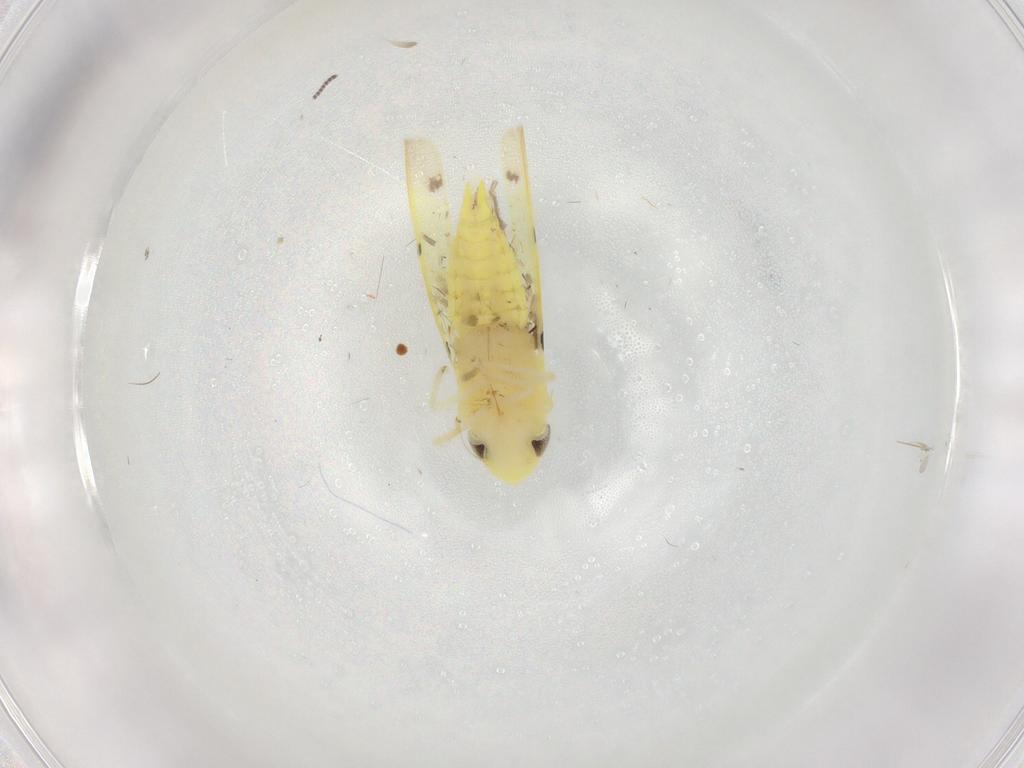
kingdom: Animalia
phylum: Arthropoda
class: Insecta
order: Hemiptera
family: Cicadellidae
